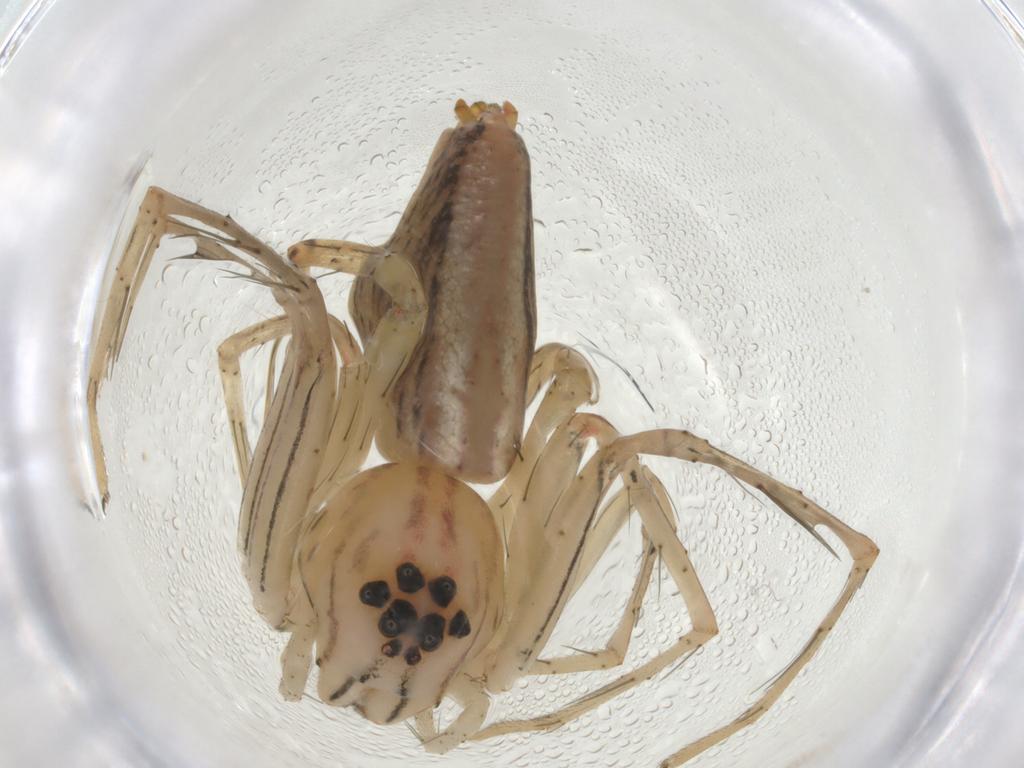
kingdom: Animalia
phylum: Arthropoda
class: Arachnida
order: Araneae
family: Oxyopidae
